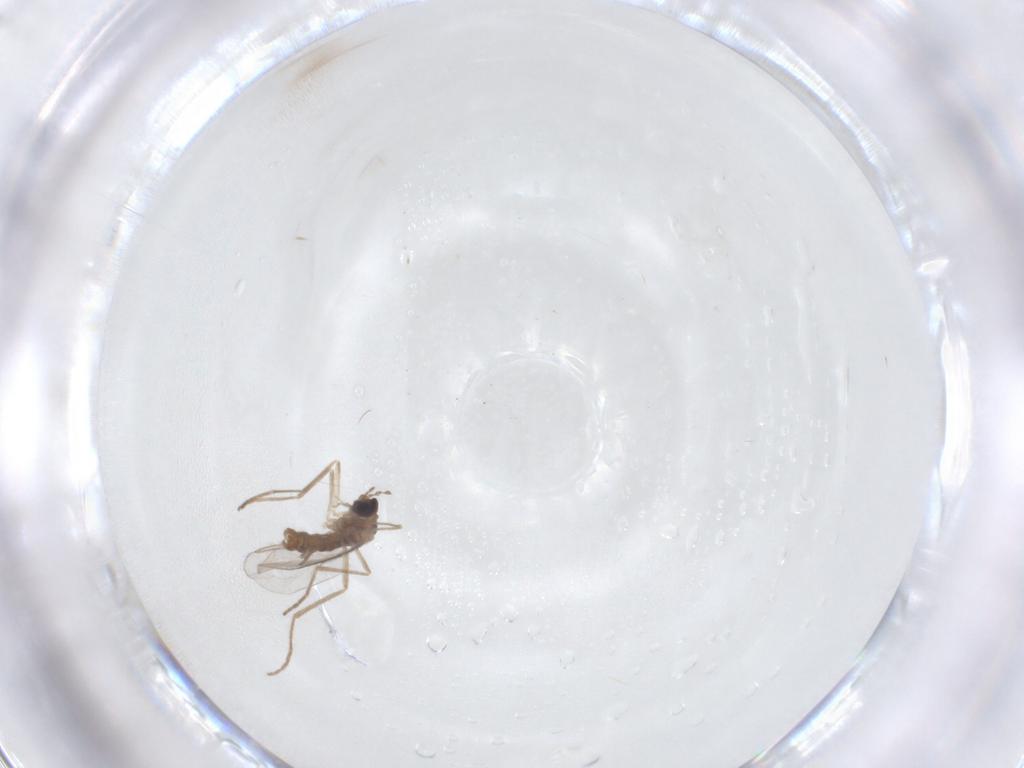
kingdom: Animalia
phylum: Arthropoda
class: Insecta
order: Diptera
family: Cecidomyiidae
